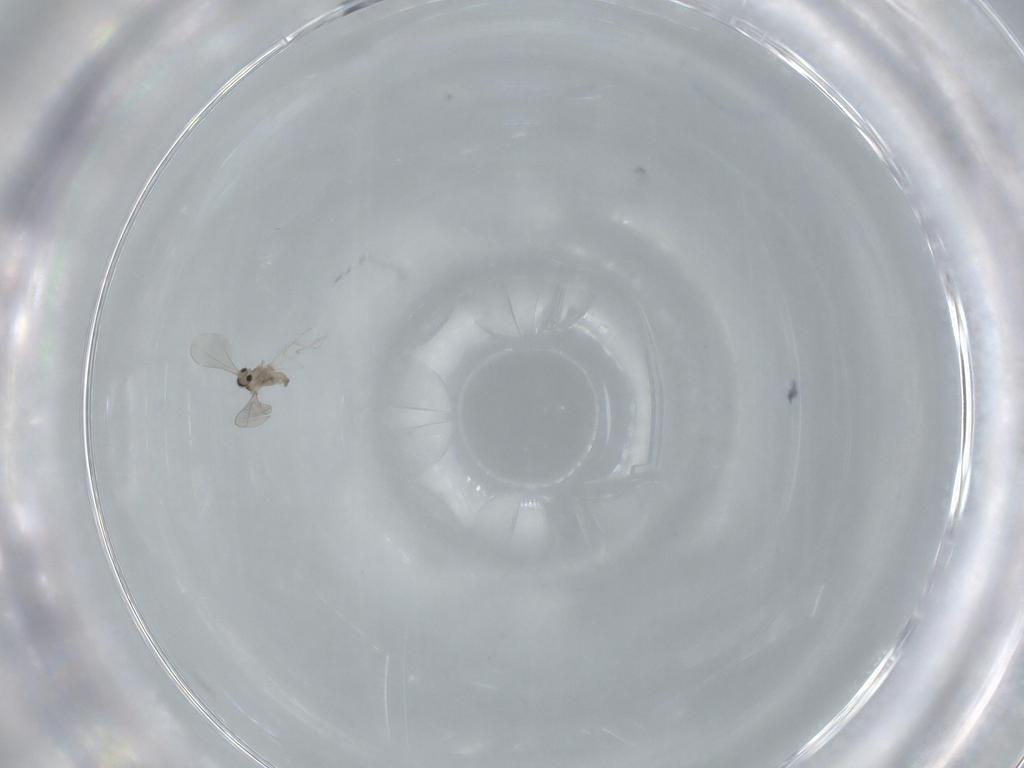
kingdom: Animalia
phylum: Arthropoda
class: Insecta
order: Diptera
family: Cecidomyiidae
